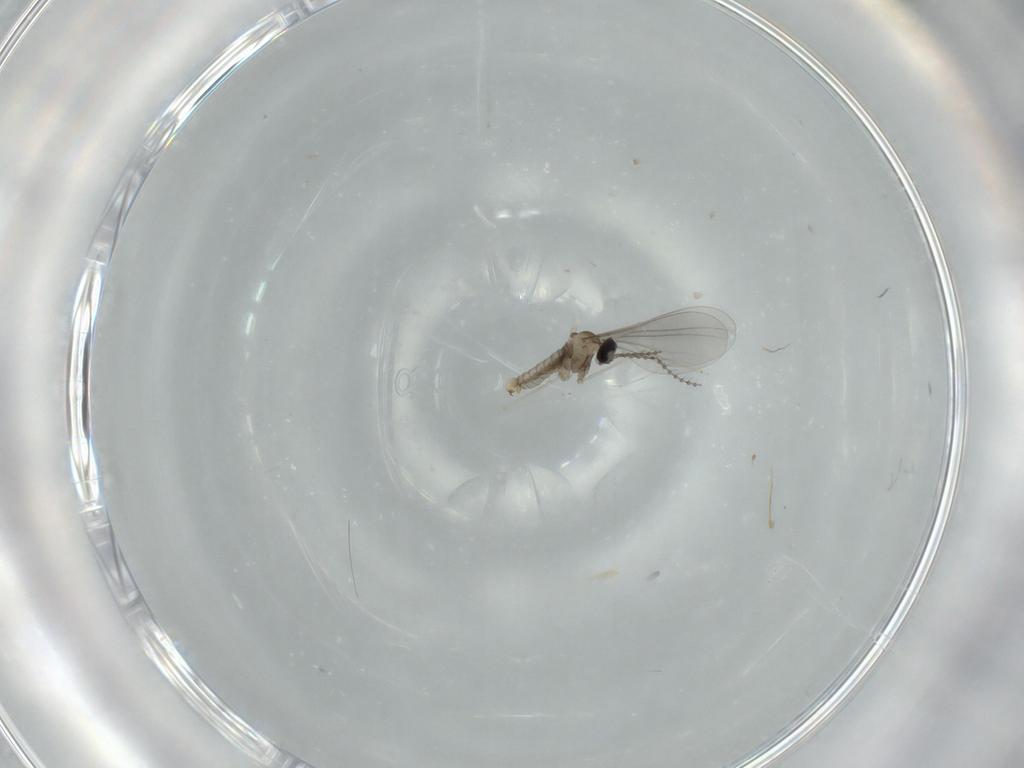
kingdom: Animalia
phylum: Arthropoda
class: Insecta
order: Diptera
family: Cecidomyiidae
